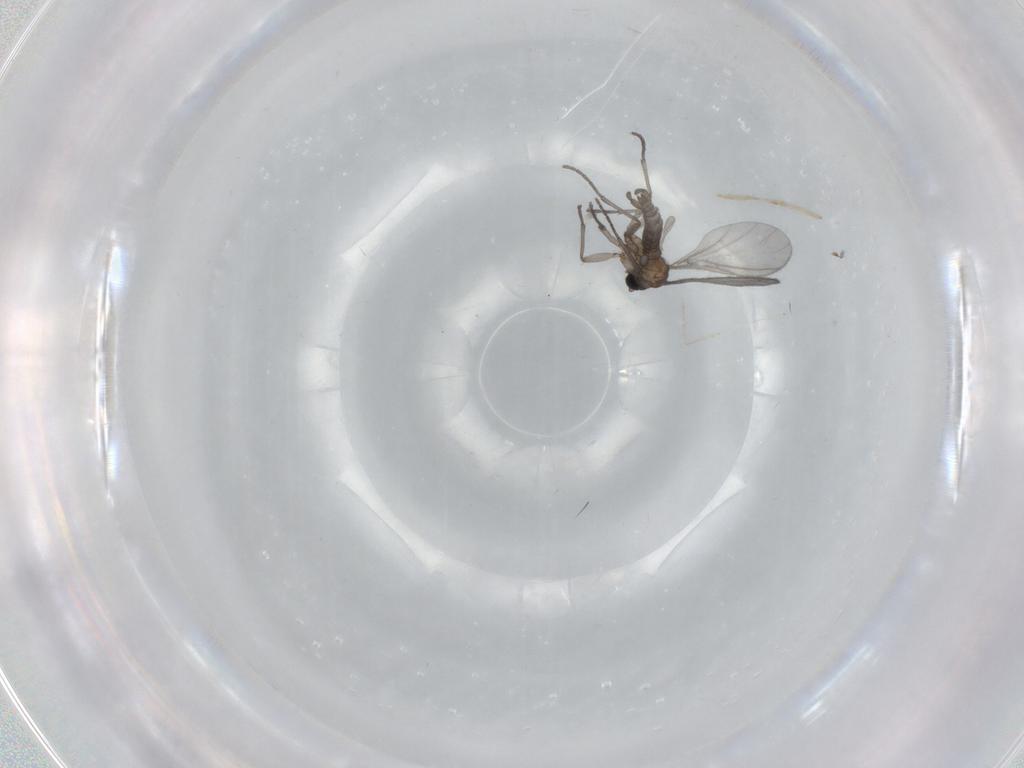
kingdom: Animalia
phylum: Arthropoda
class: Insecta
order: Diptera
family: Sciaridae
